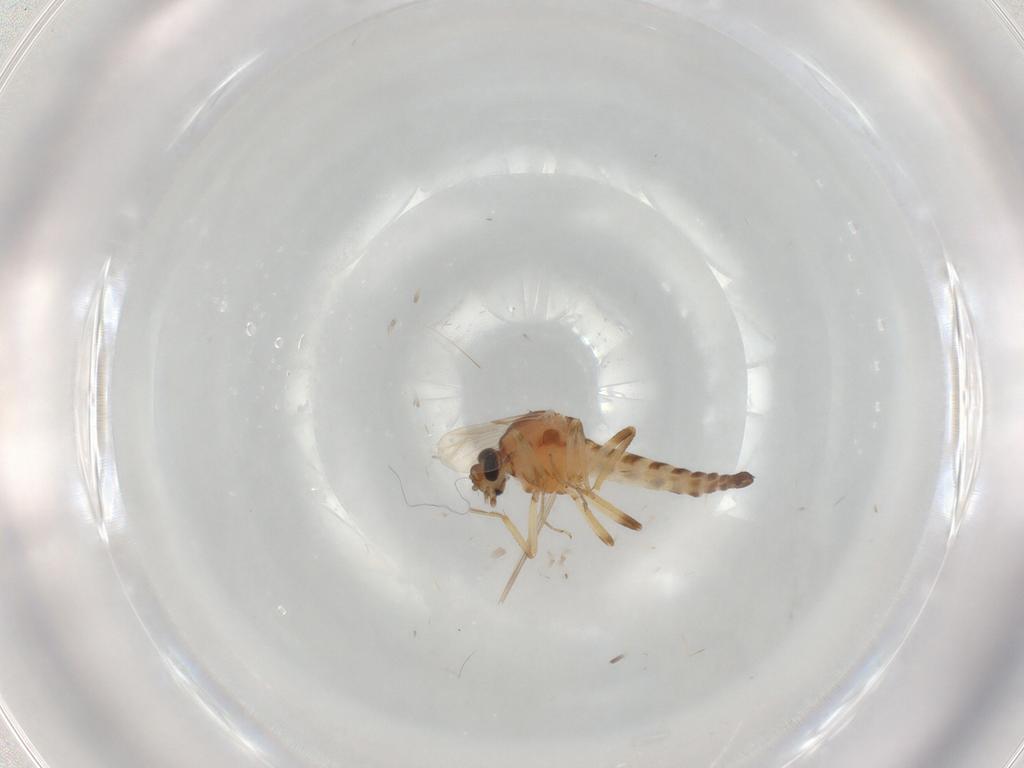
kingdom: Animalia
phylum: Arthropoda
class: Insecta
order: Diptera
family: Ceratopogonidae
